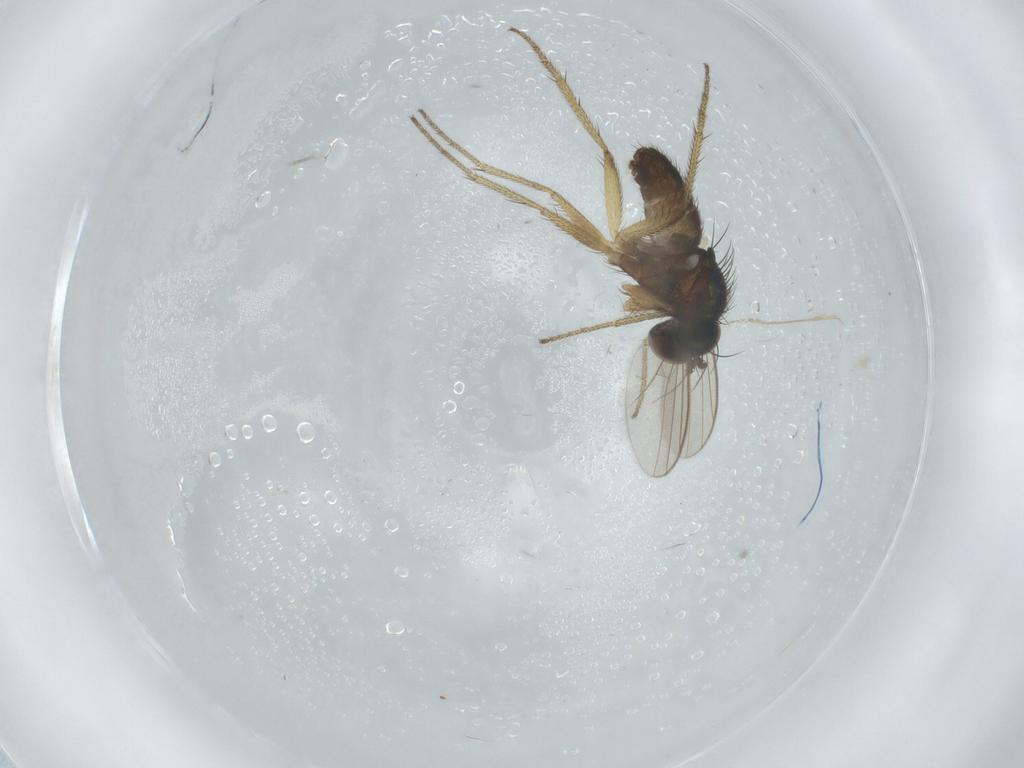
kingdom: Animalia
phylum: Arthropoda
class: Insecta
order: Diptera
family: Dolichopodidae
